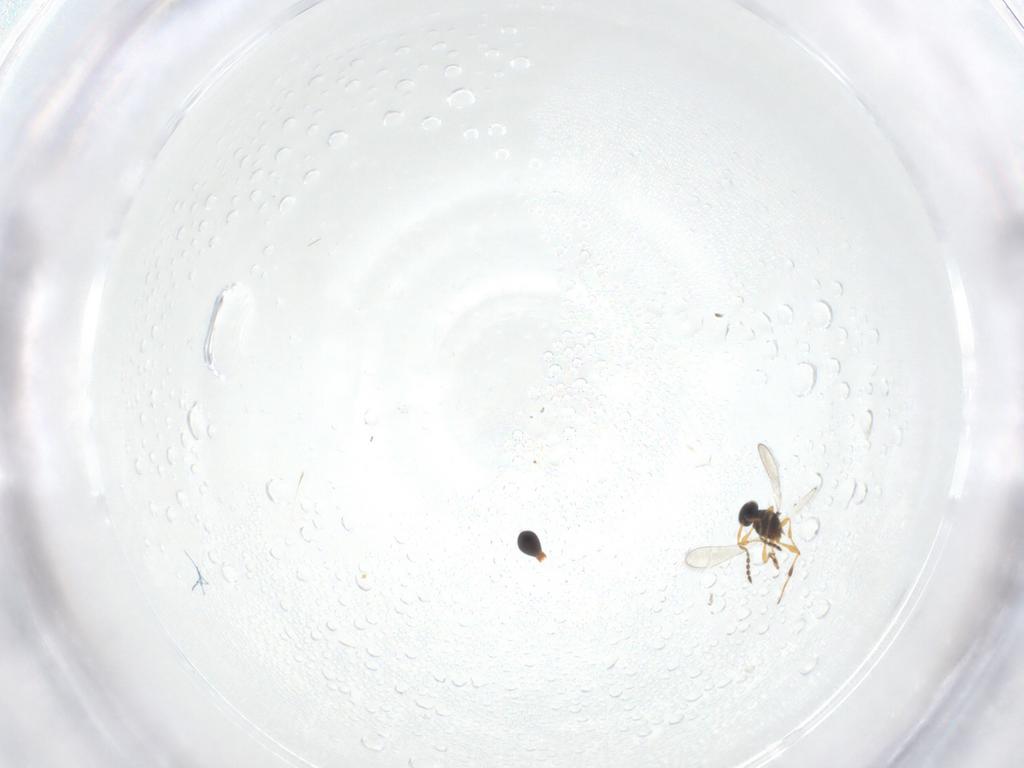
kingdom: Animalia
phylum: Arthropoda
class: Insecta
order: Hymenoptera
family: Platygastridae
